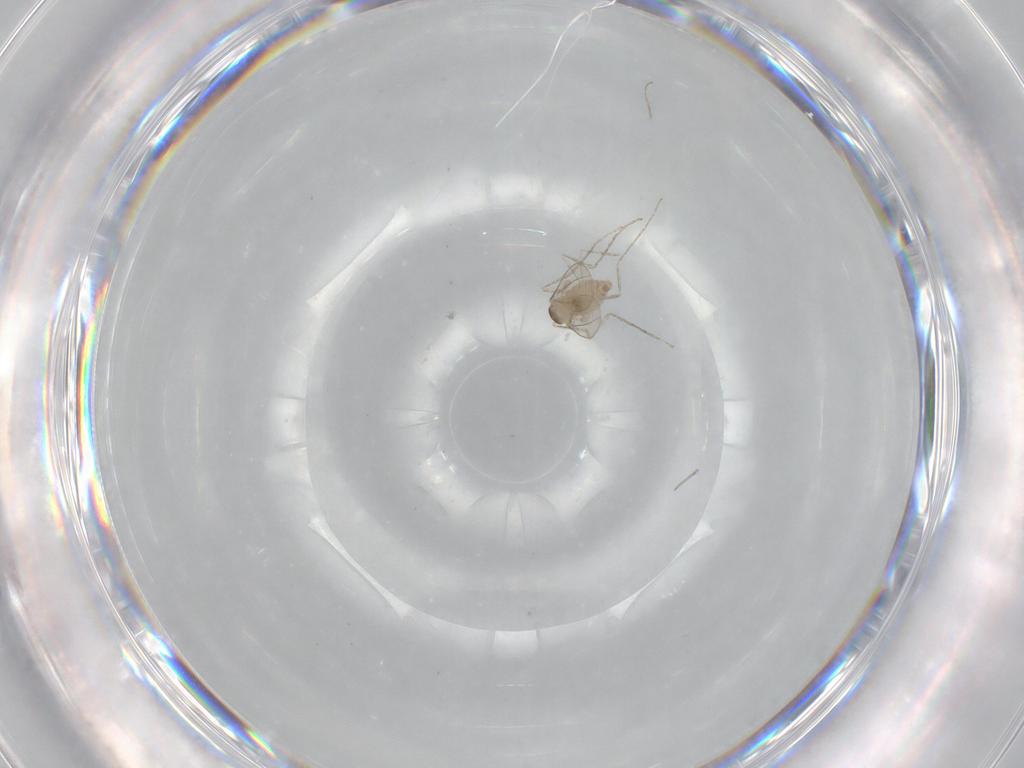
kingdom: Animalia
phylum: Arthropoda
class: Insecta
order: Diptera
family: Cecidomyiidae
